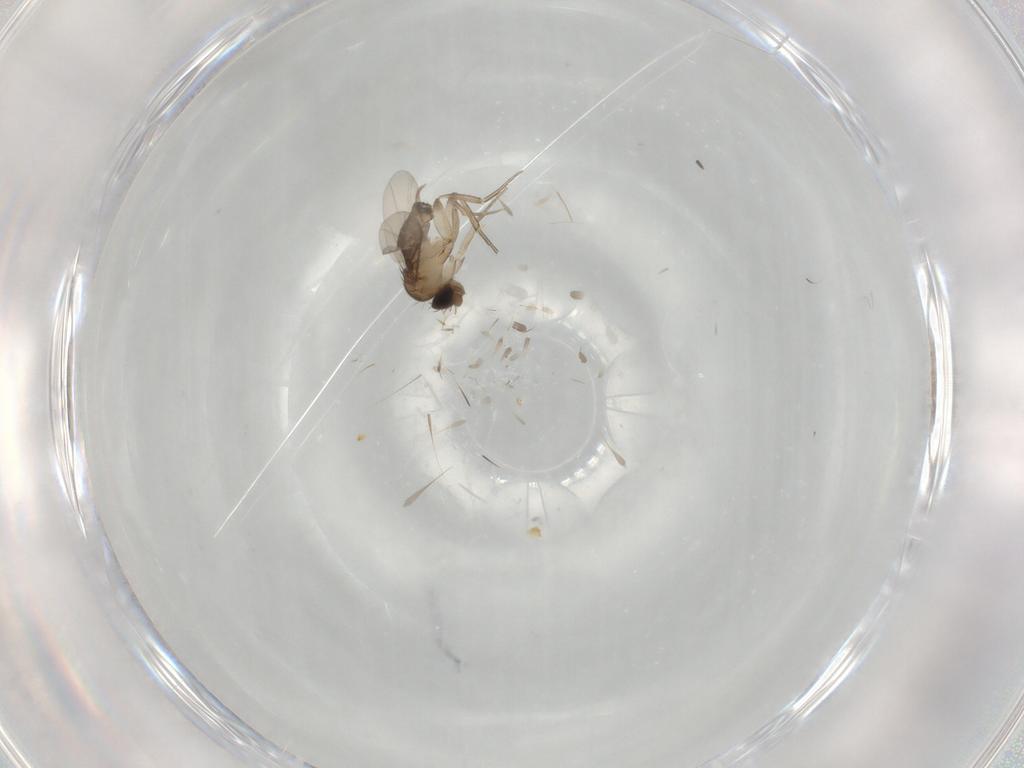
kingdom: Animalia
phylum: Arthropoda
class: Insecta
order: Diptera
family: Phoridae
